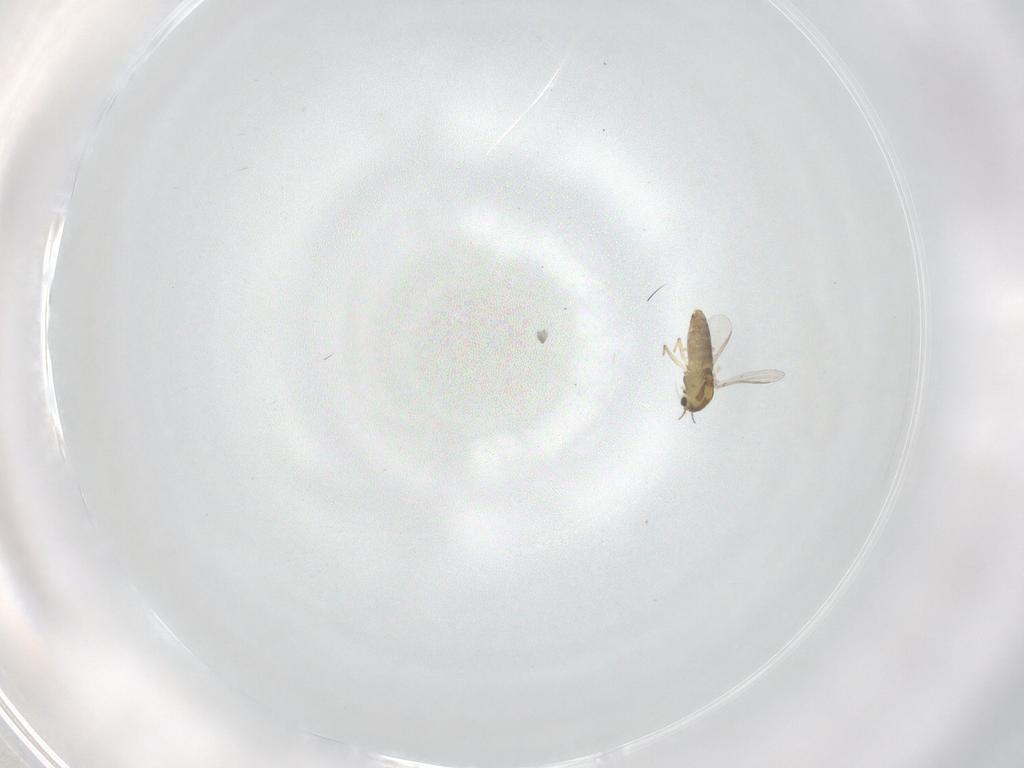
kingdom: Animalia
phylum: Arthropoda
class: Insecta
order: Diptera
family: Chironomidae
